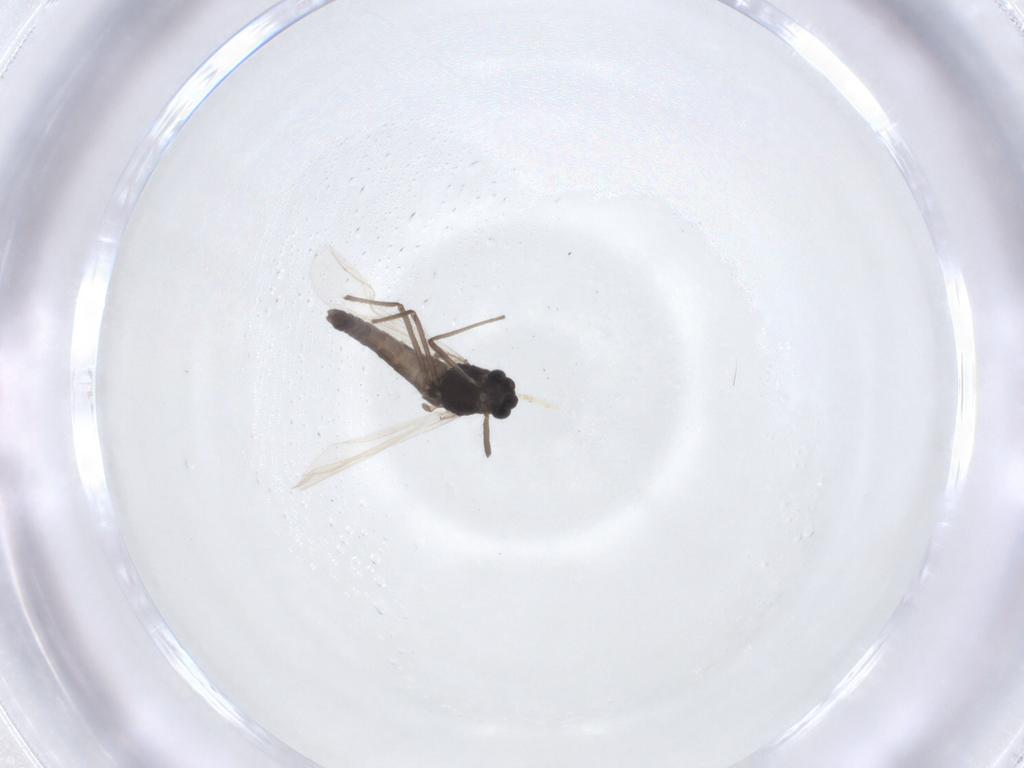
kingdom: Animalia
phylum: Arthropoda
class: Insecta
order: Diptera
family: Chironomidae
